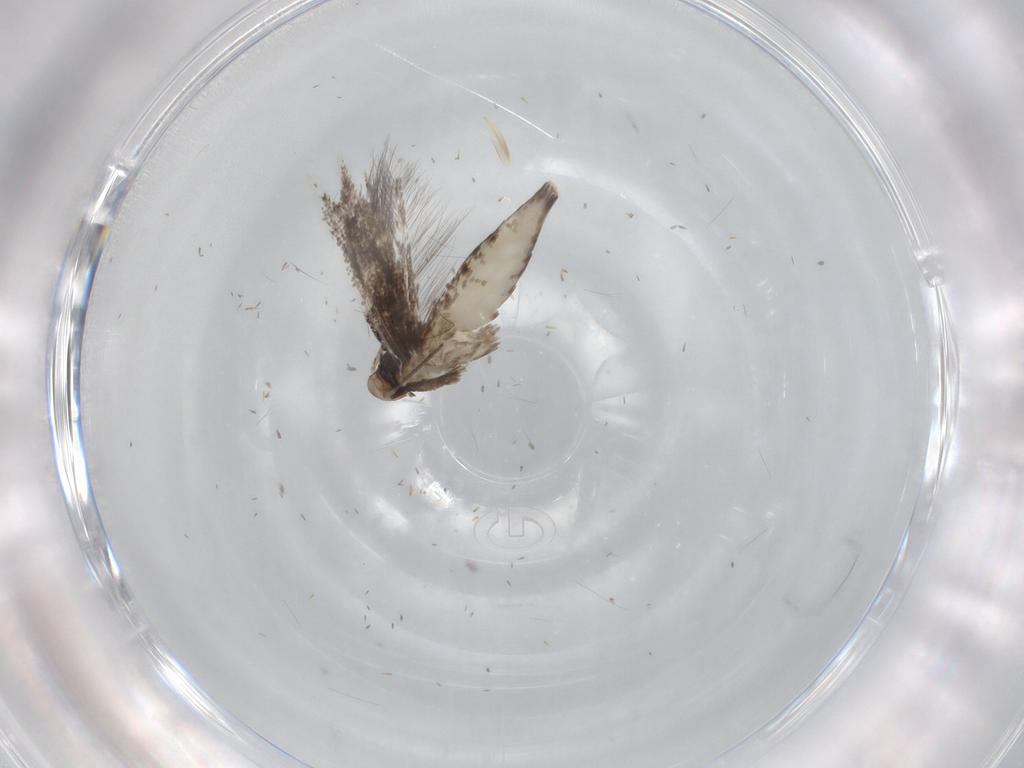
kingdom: Animalia
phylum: Arthropoda
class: Insecta
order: Lepidoptera
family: Gracillariidae
